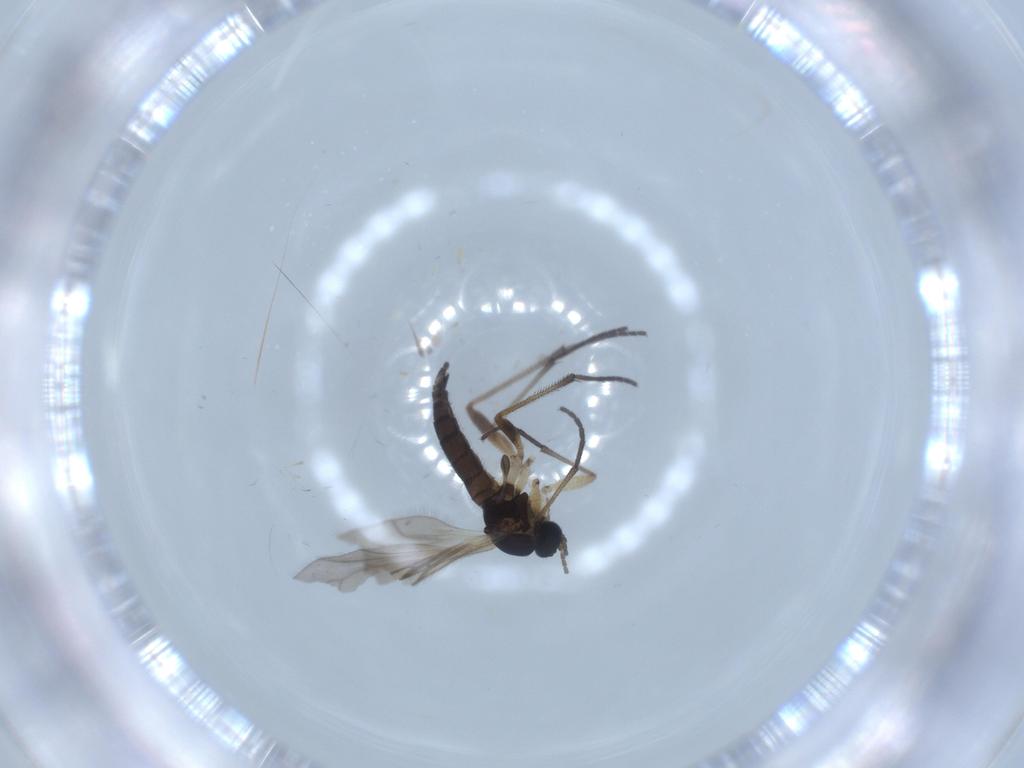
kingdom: Animalia
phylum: Arthropoda
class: Insecta
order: Diptera
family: Sciaridae
